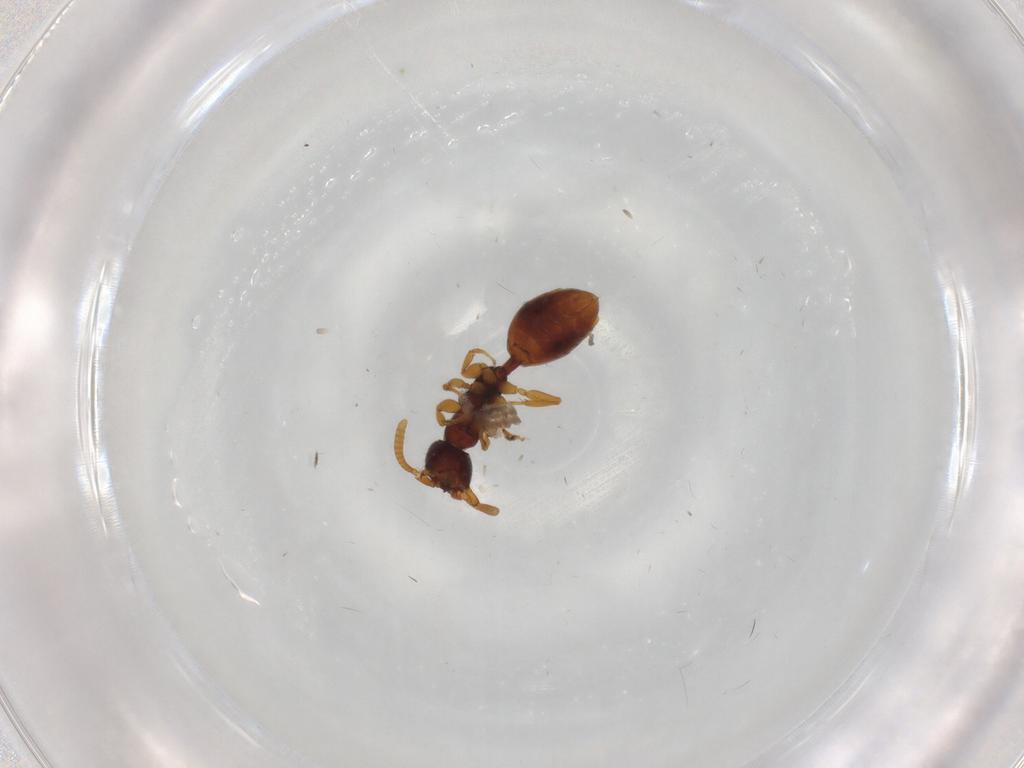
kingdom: Animalia
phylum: Arthropoda
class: Insecta
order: Hymenoptera
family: Bethylidae
